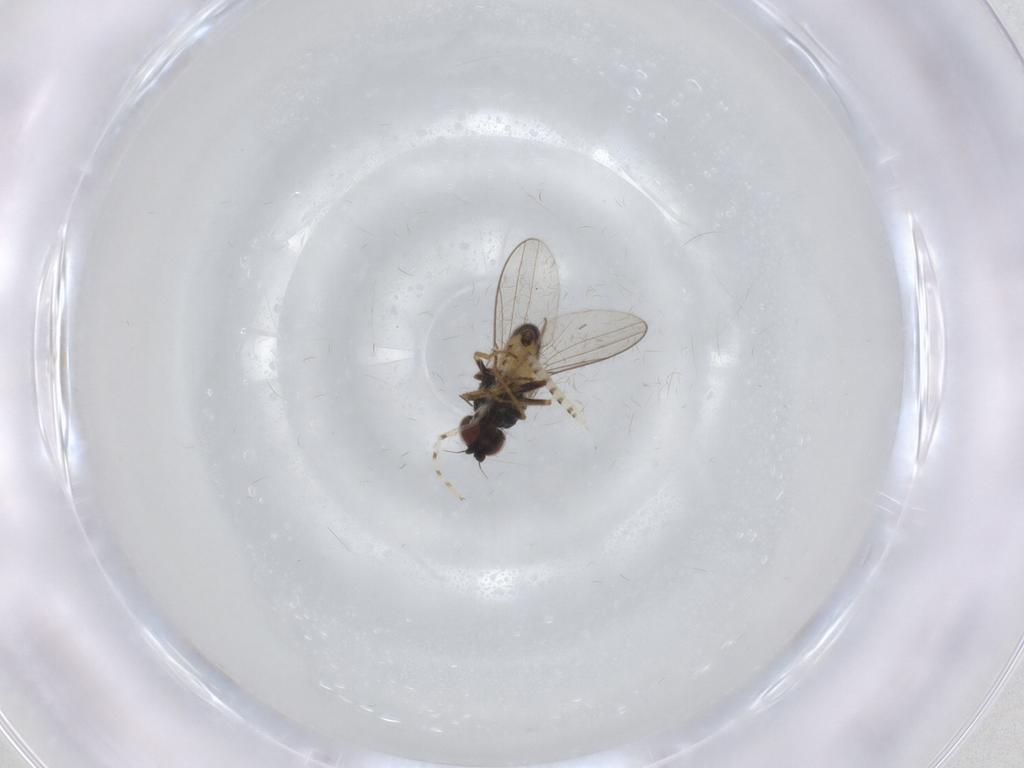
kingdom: Animalia
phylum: Arthropoda
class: Insecta
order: Diptera
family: Chloropidae
